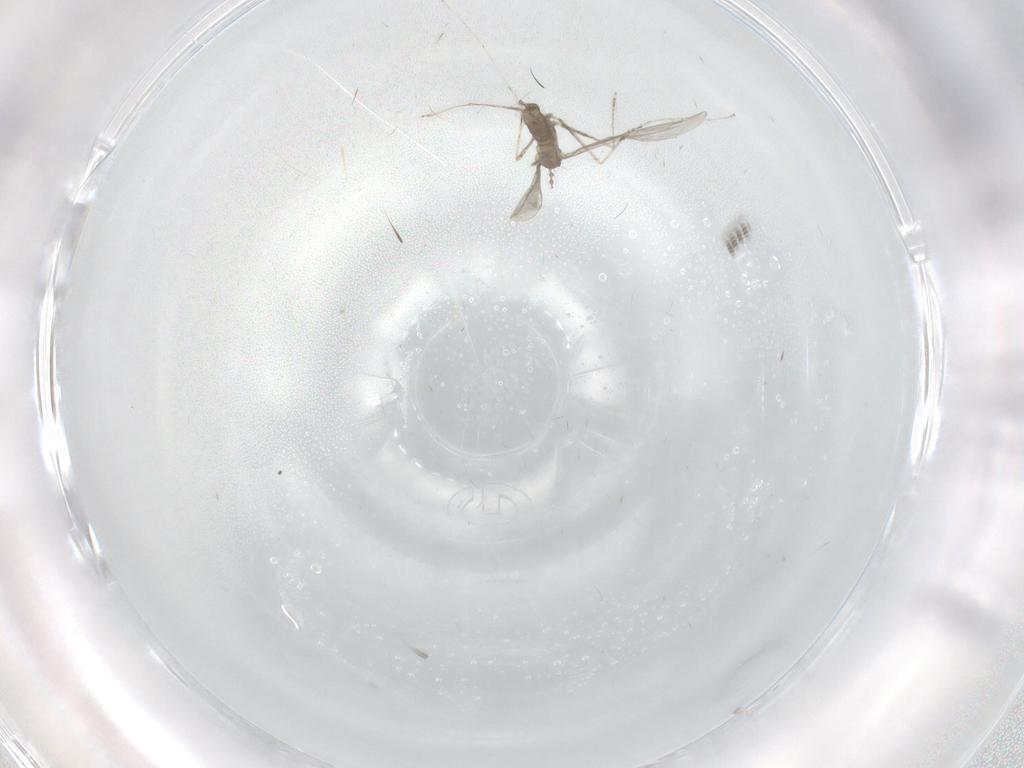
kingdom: Animalia
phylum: Arthropoda
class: Insecta
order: Diptera
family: Cecidomyiidae
